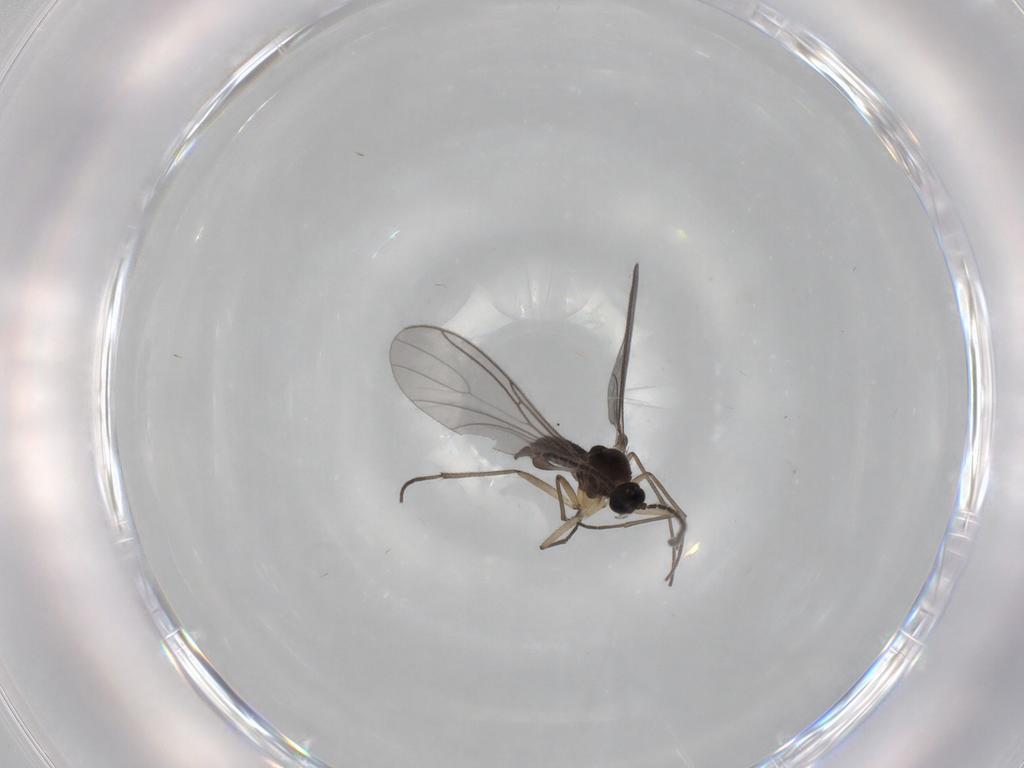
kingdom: Animalia
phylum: Arthropoda
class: Insecta
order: Diptera
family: Sciaridae
